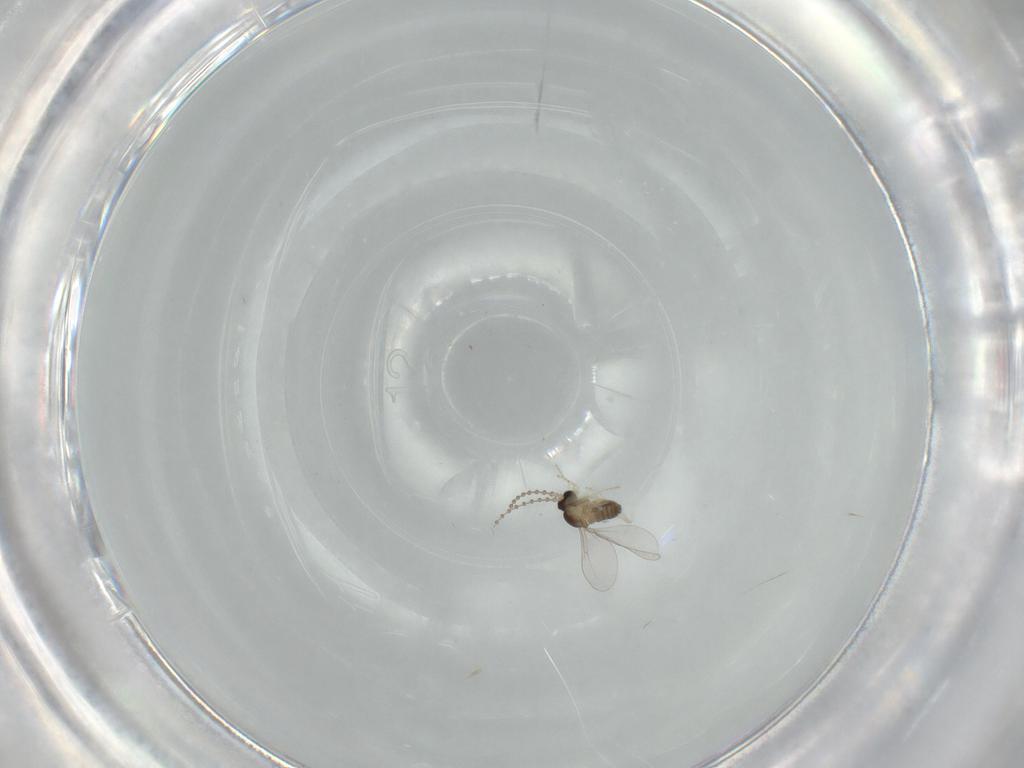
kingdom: Animalia
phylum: Arthropoda
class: Insecta
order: Diptera
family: Cecidomyiidae
